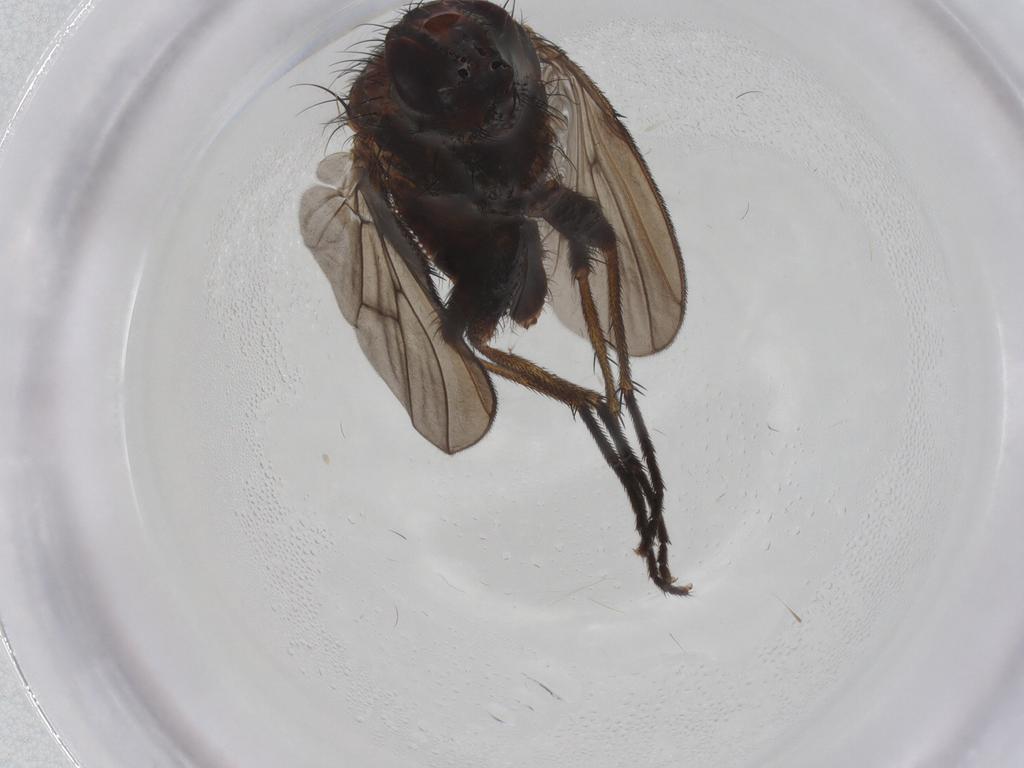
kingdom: Animalia
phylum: Arthropoda
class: Insecta
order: Diptera
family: Muscidae
